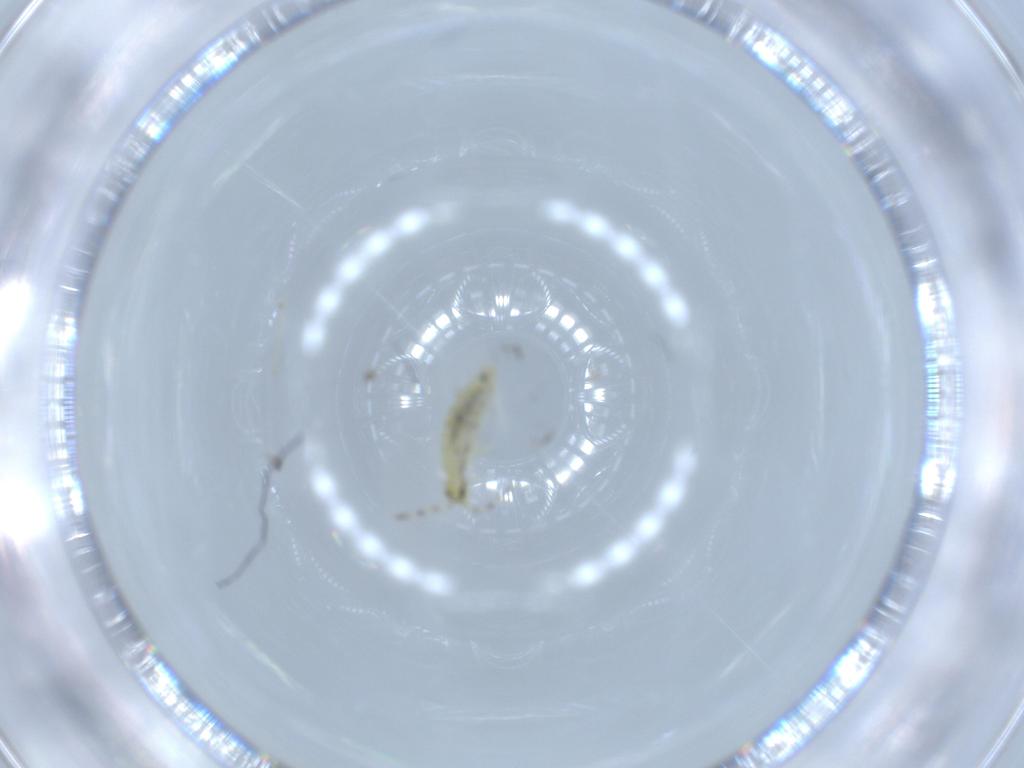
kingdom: Animalia
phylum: Arthropoda
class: Collembola
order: Entomobryomorpha
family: Entomobryidae
